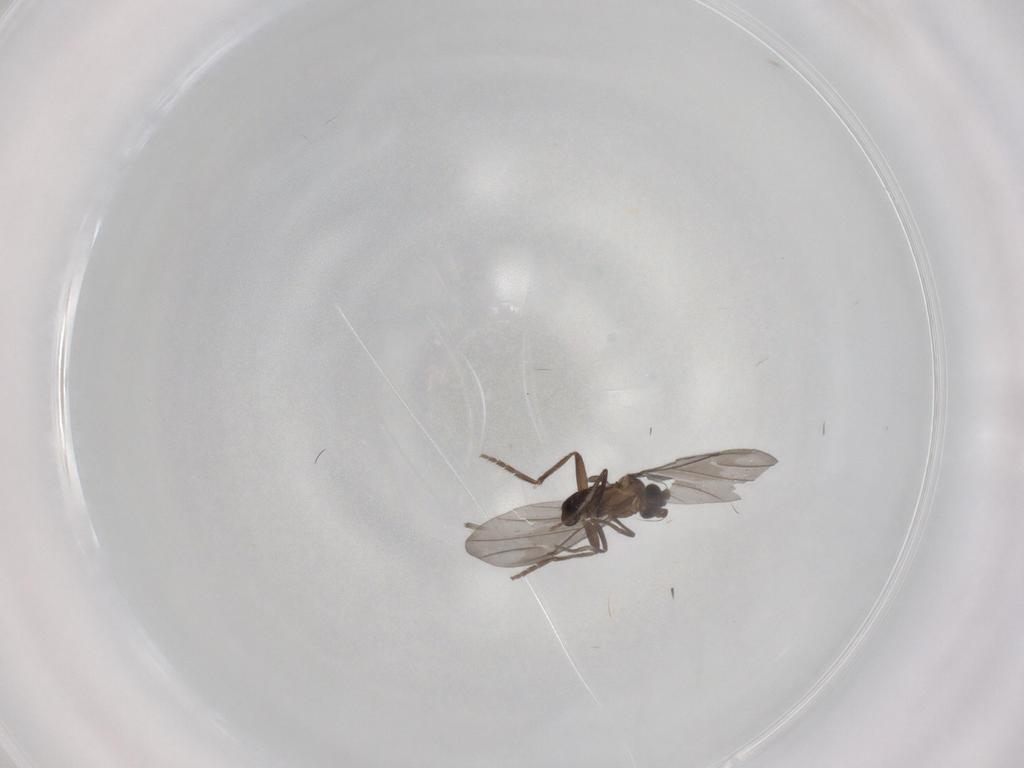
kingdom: Animalia
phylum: Arthropoda
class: Insecta
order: Diptera
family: Phoridae
